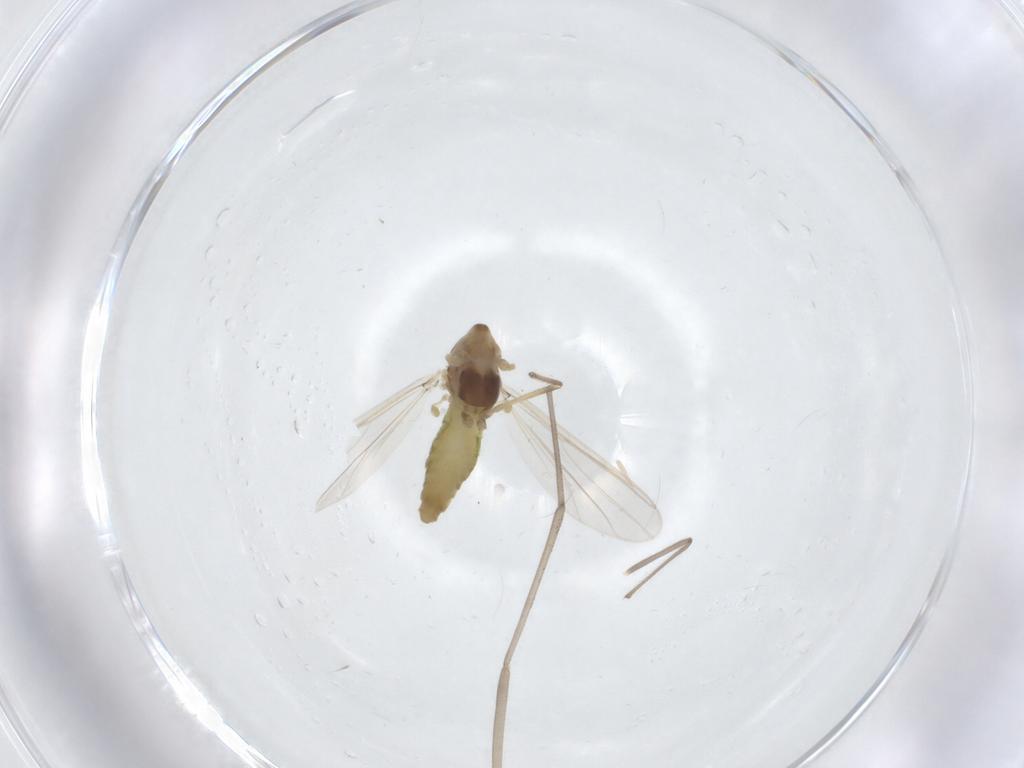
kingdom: Animalia
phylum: Arthropoda
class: Insecta
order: Diptera
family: Chironomidae
